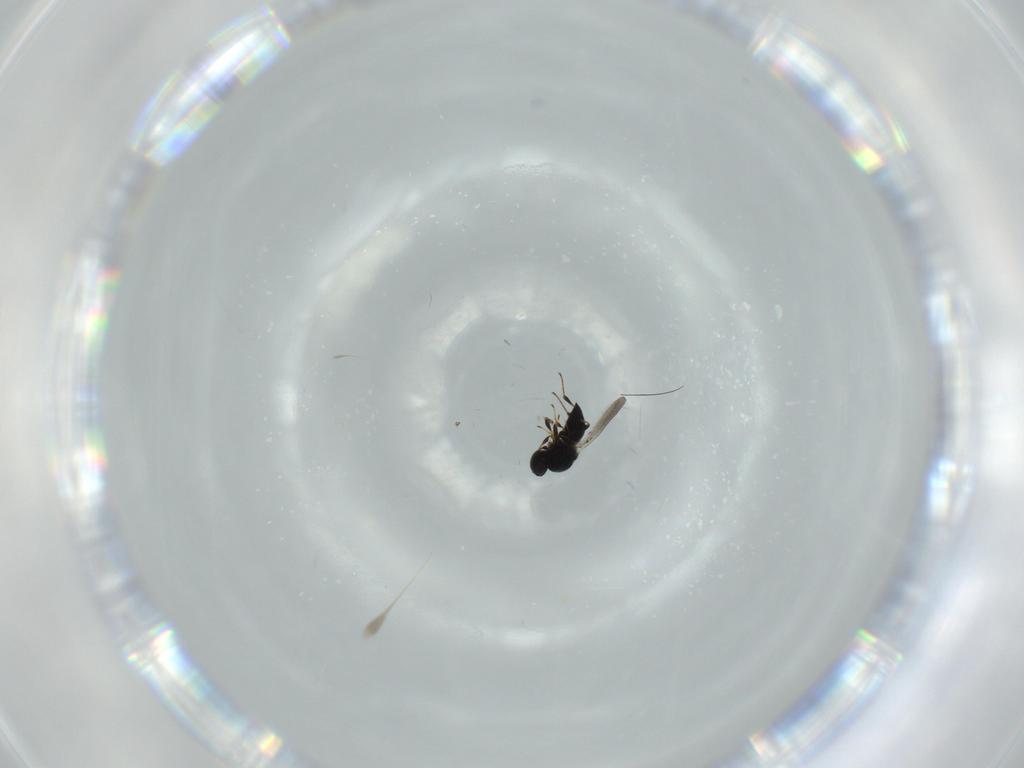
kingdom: Animalia
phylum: Arthropoda
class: Insecta
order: Hymenoptera
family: Platygastridae
